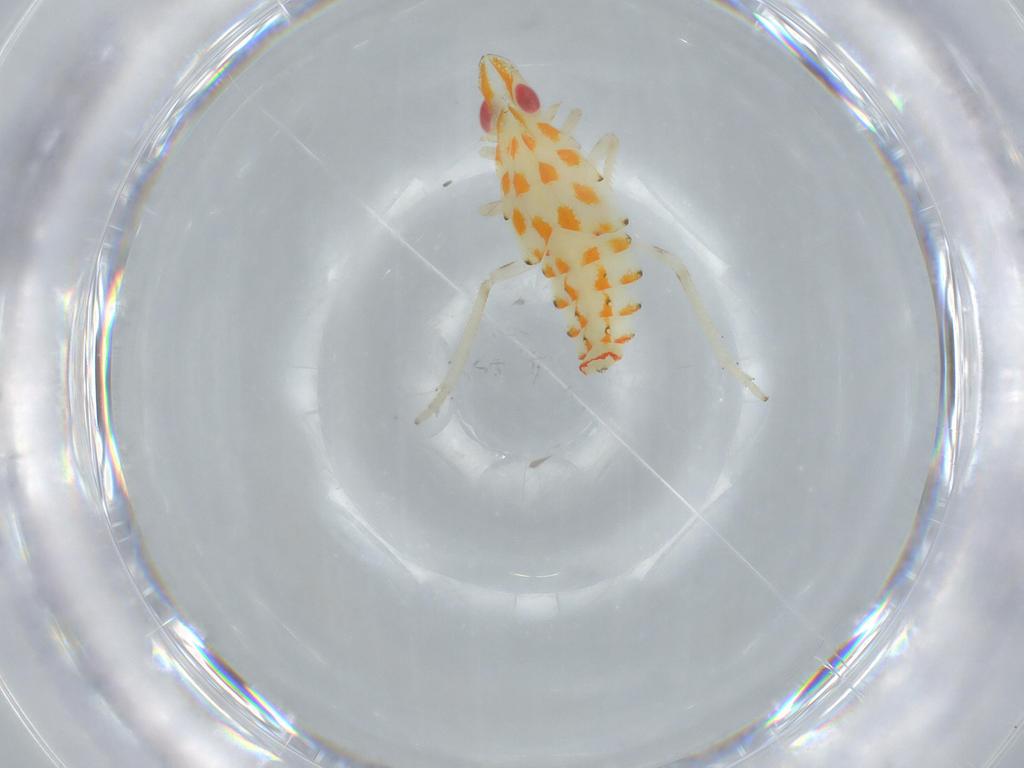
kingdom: Animalia
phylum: Arthropoda
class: Insecta
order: Hemiptera
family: Tropiduchidae
